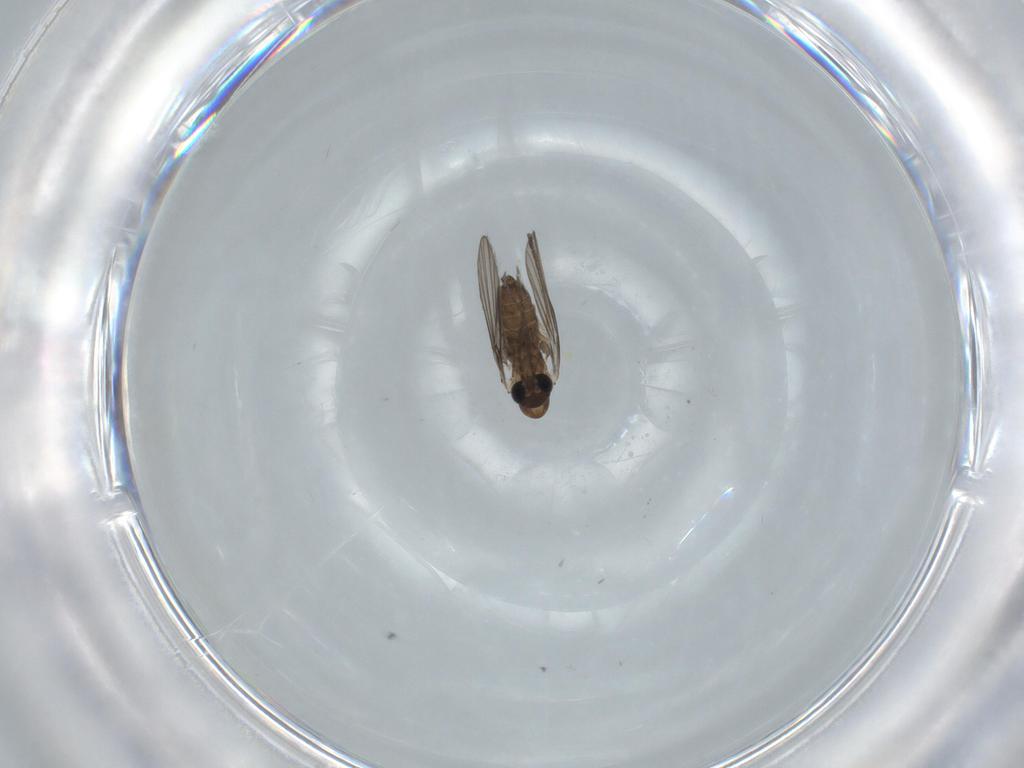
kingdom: Animalia
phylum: Arthropoda
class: Insecta
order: Diptera
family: Psychodidae
